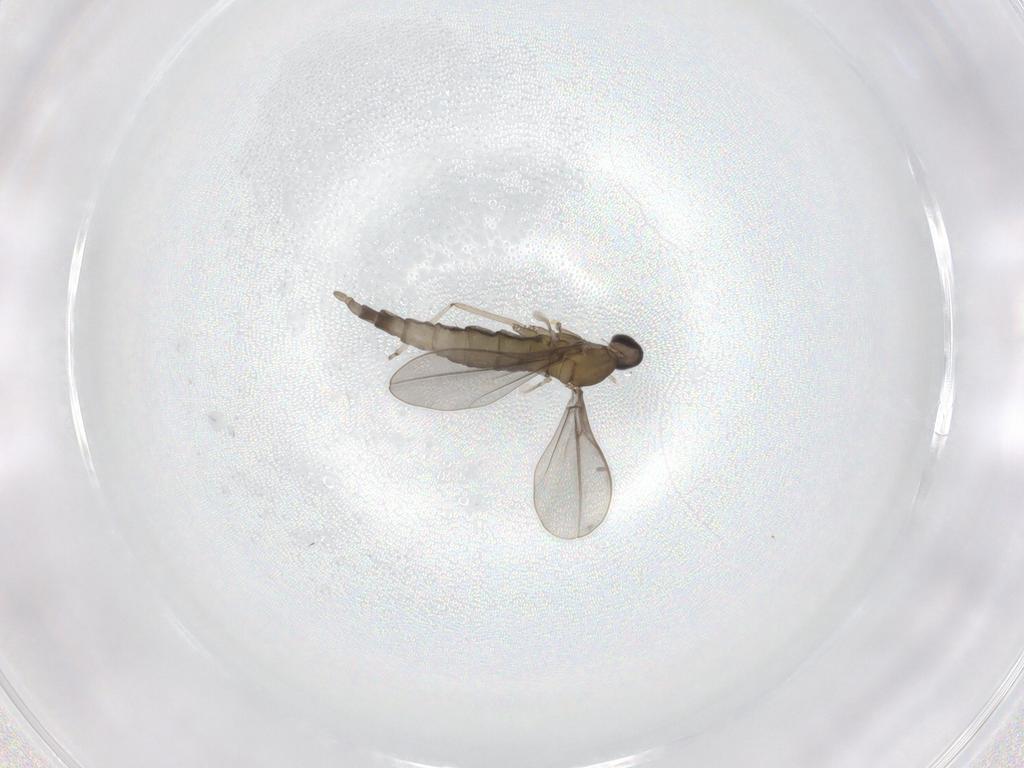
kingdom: Animalia
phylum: Arthropoda
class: Insecta
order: Diptera
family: Cecidomyiidae
